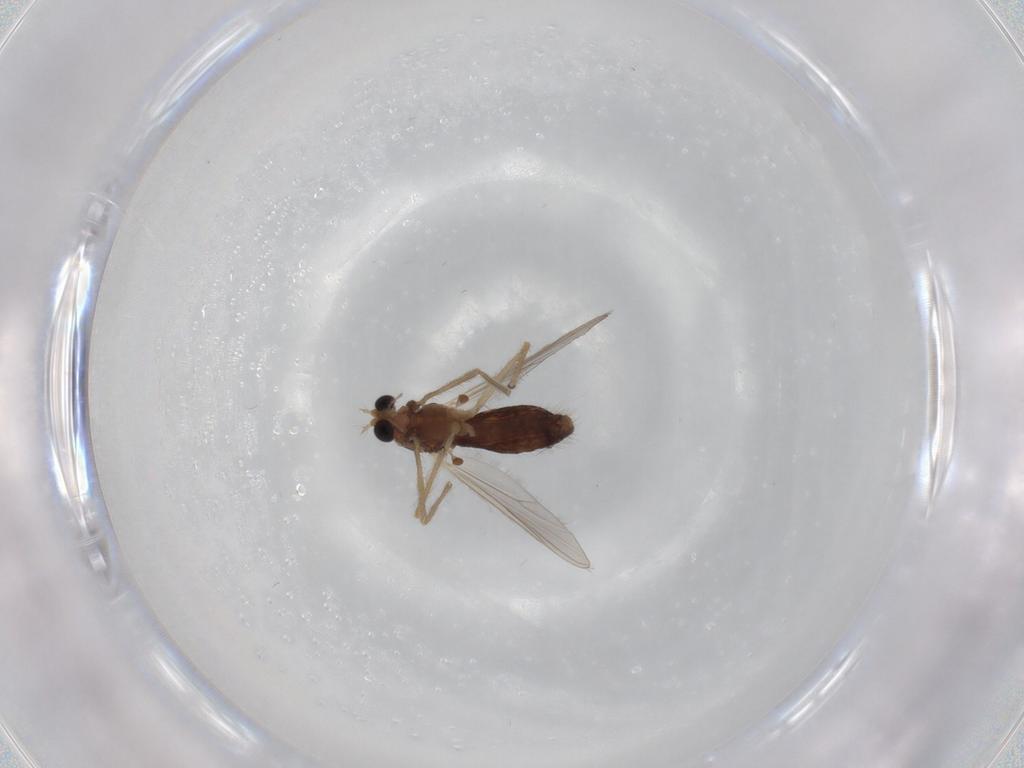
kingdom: Animalia
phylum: Arthropoda
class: Insecta
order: Diptera
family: Chironomidae
